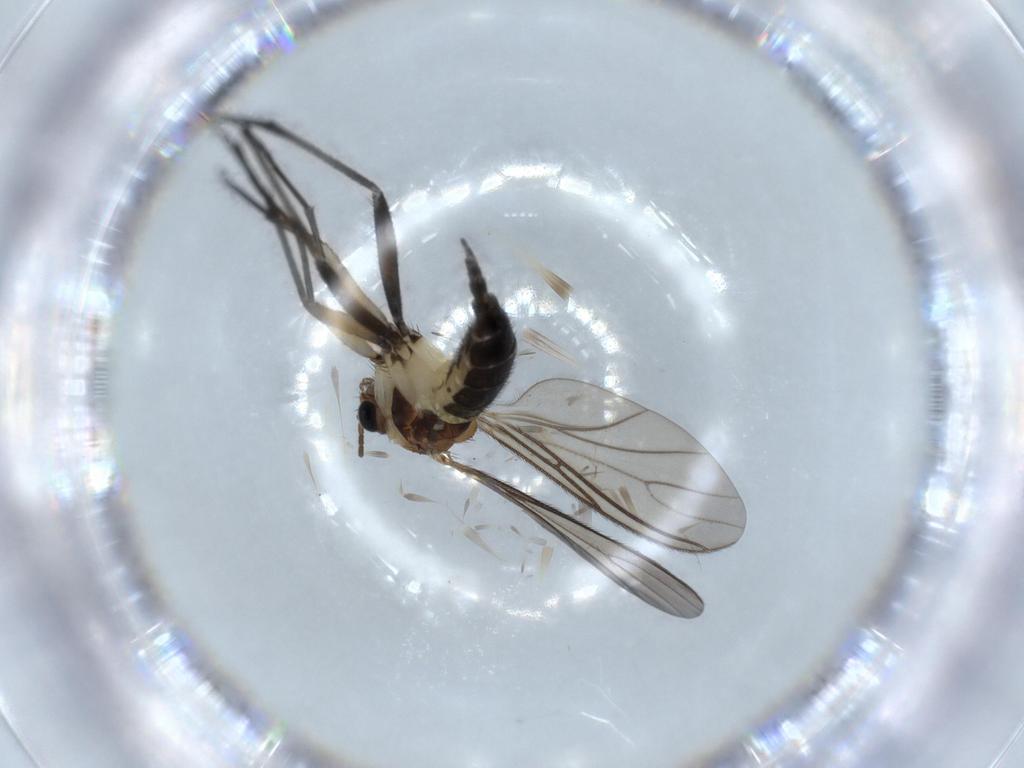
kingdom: Animalia
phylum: Arthropoda
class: Insecta
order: Diptera
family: Sciaridae
